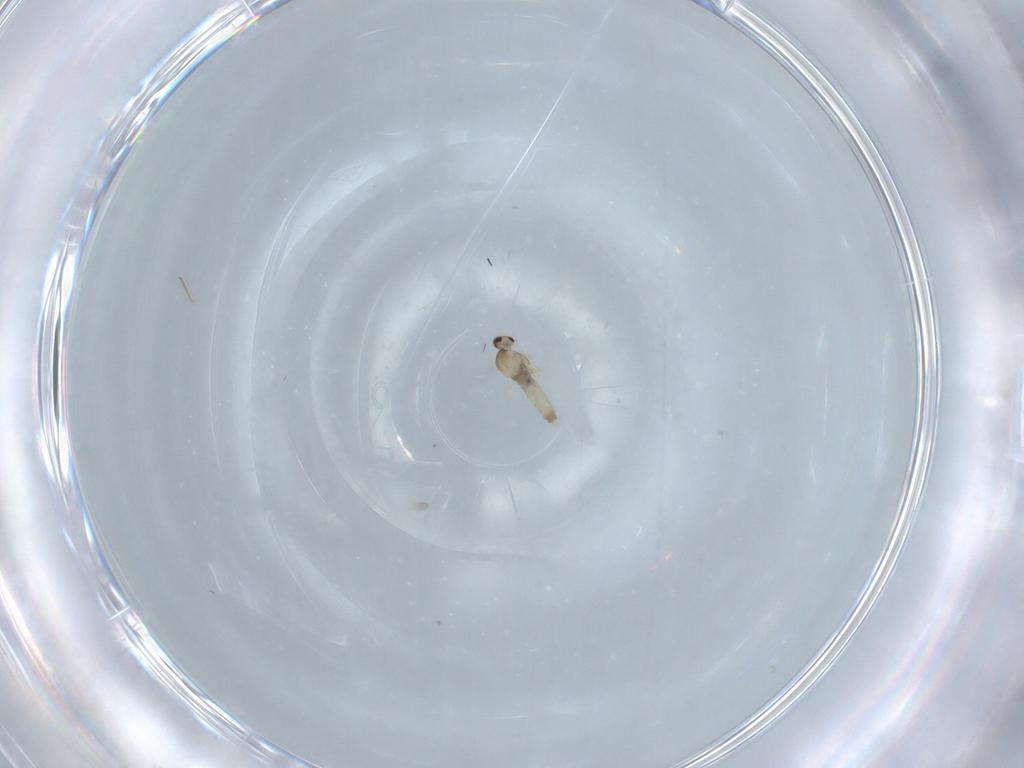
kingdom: Animalia
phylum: Arthropoda
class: Insecta
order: Diptera
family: Cecidomyiidae
